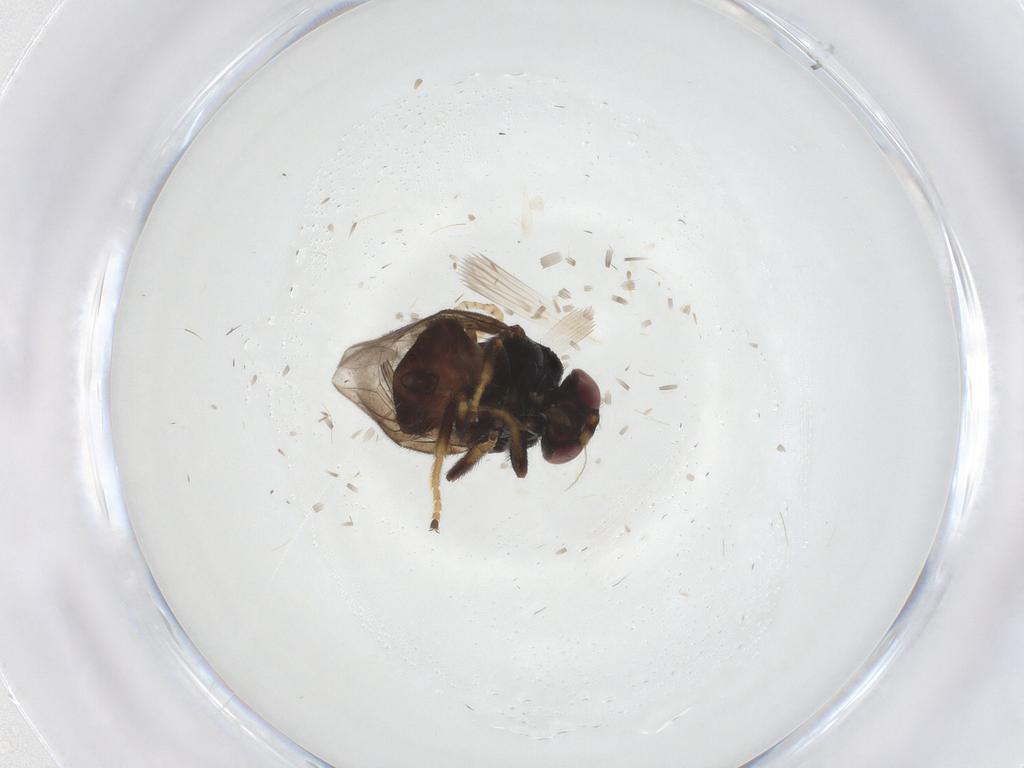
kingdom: Animalia
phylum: Arthropoda
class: Insecta
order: Diptera
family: Chloropidae
